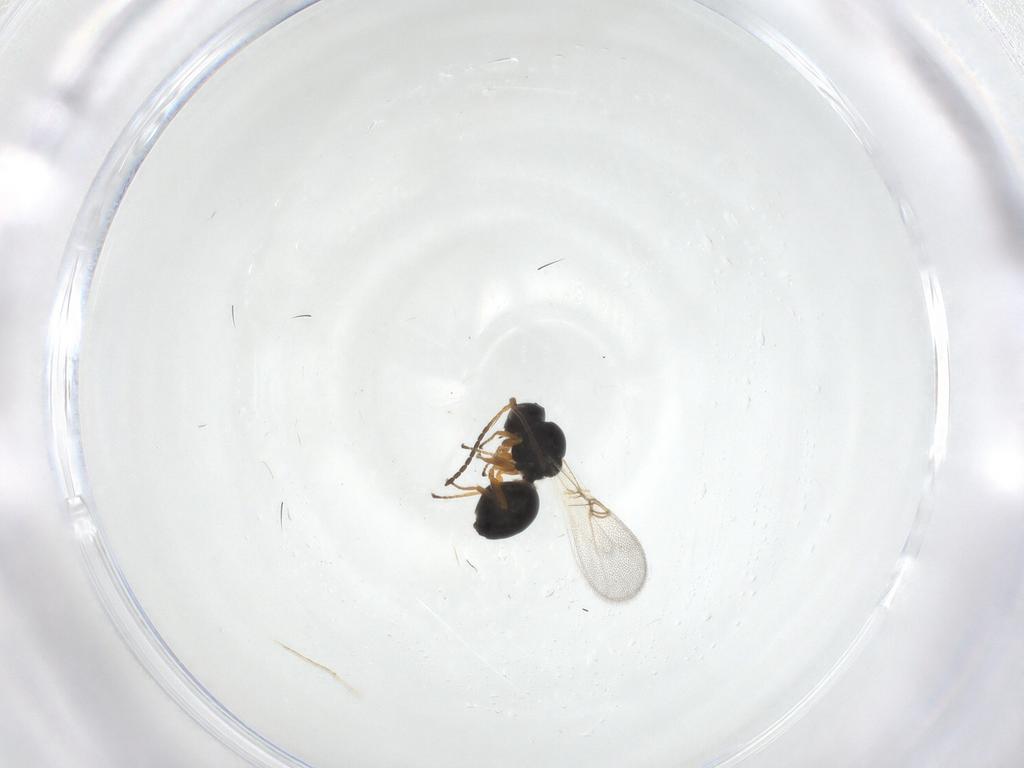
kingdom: Animalia
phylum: Arthropoda
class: Insecta
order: Hymenoptera
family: Figitidae
